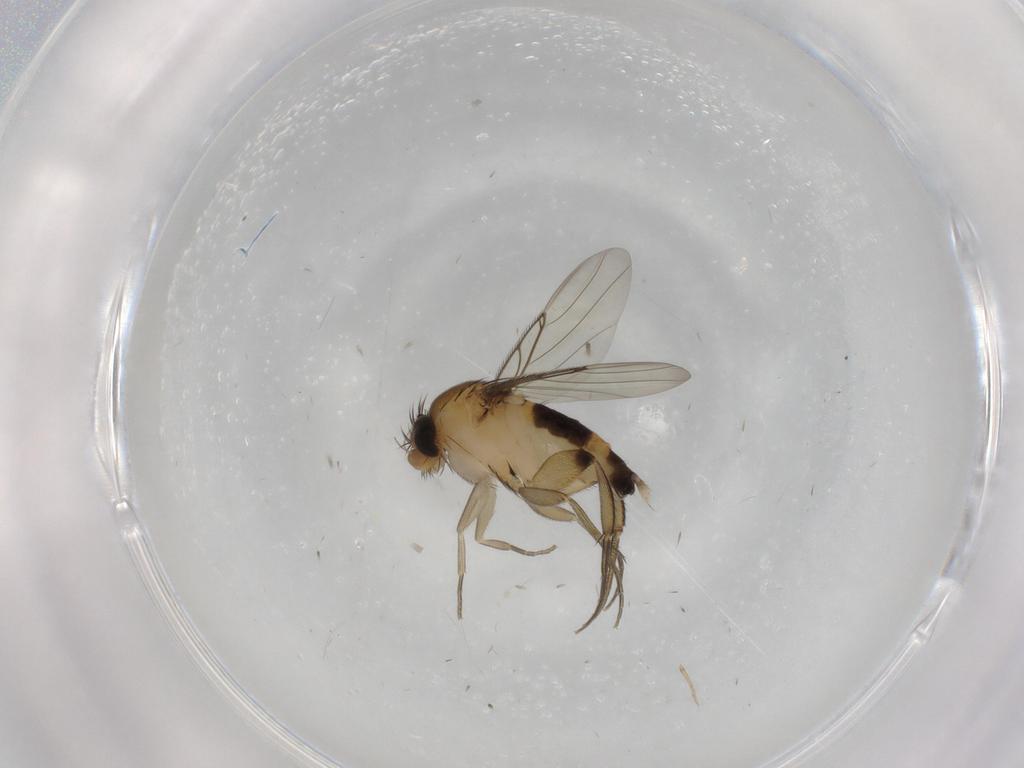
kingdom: Animalia
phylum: Arthropoda
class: Insecta
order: Diptera
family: Phoridae
